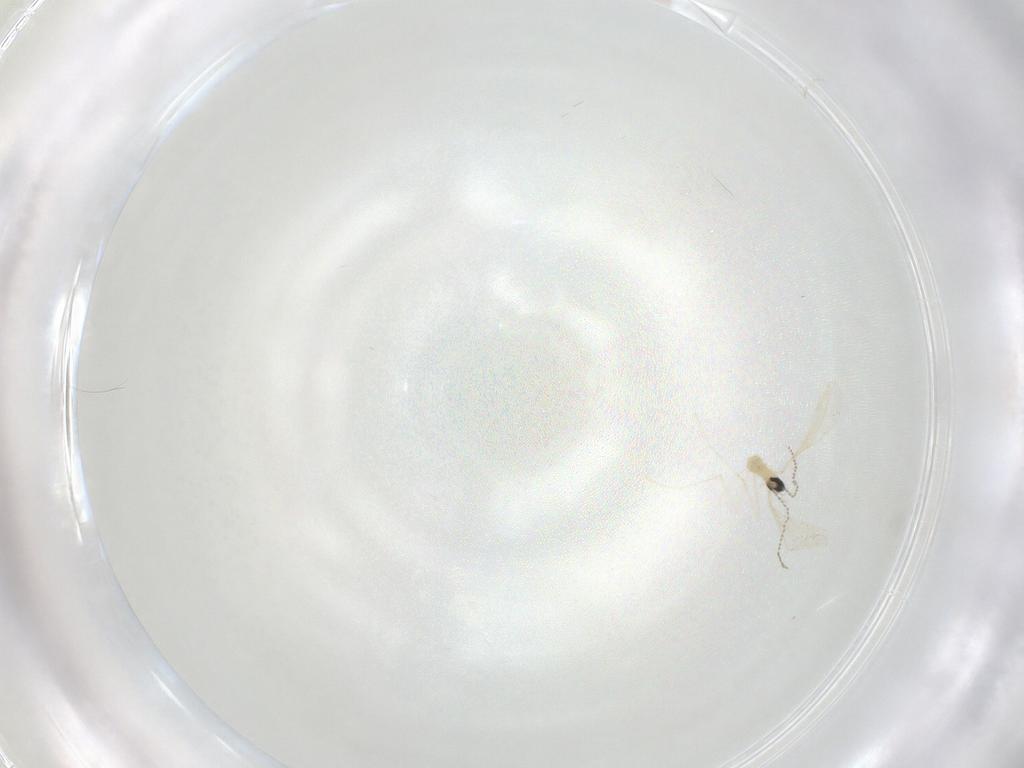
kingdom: Animalia
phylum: Arthropoda
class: Insecta
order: Diptera
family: Cecidomyiidae
